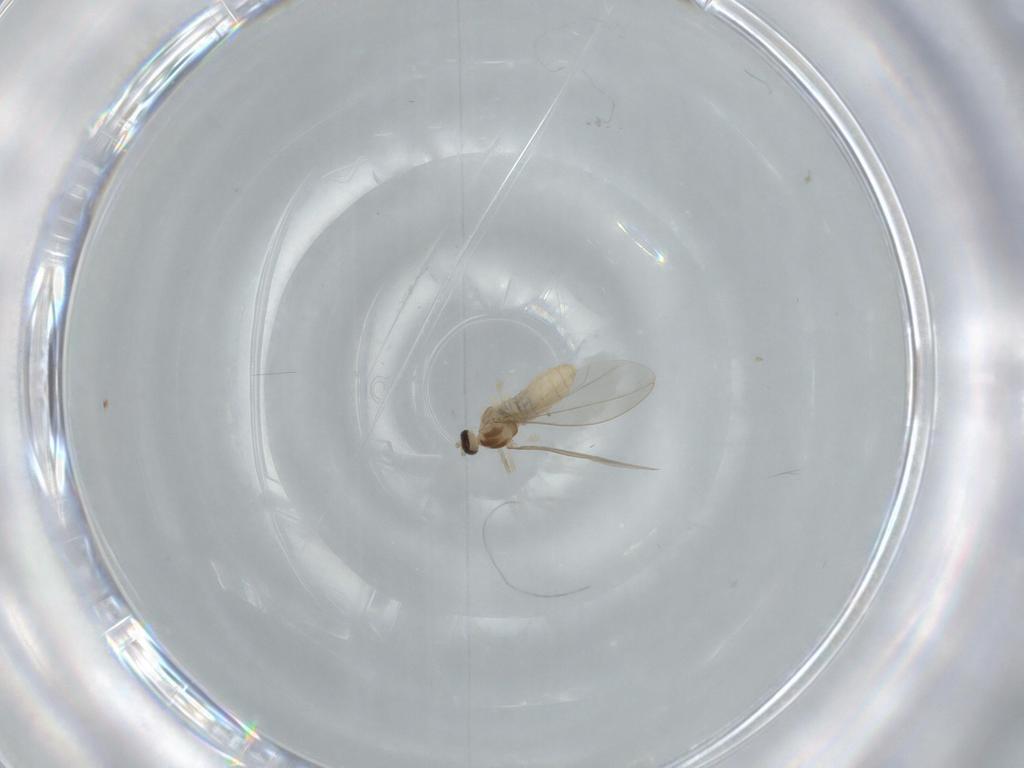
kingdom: Animalia
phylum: Arthropoda
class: Insecta
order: Diptera
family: Cecidomyiidae
